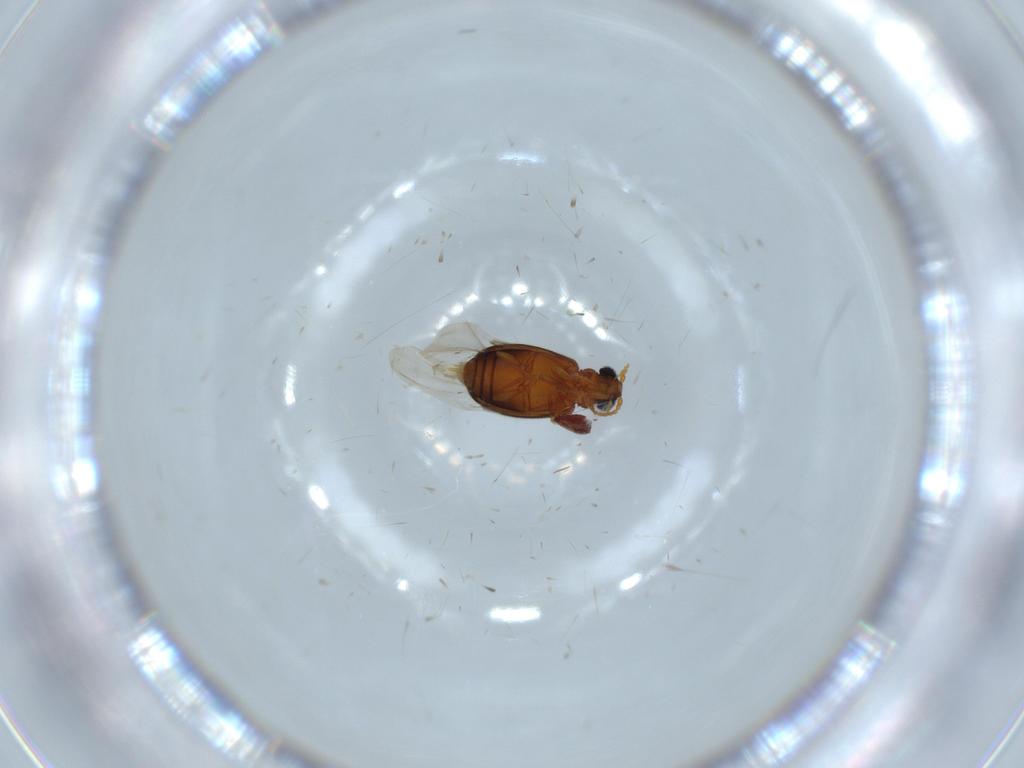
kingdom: Animalia
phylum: Arthropoda
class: Insecta
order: Coleoptera
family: Aderidae
